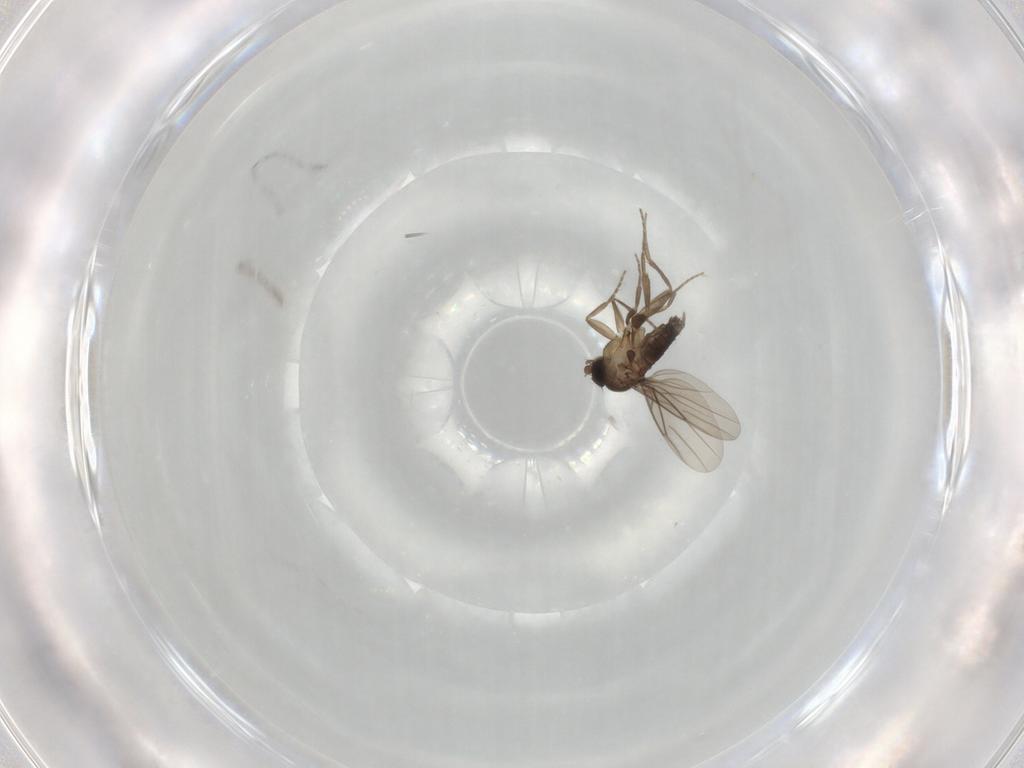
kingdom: Animalia
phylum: Arthropoda
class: Insecta
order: Diptera
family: Phoridae
